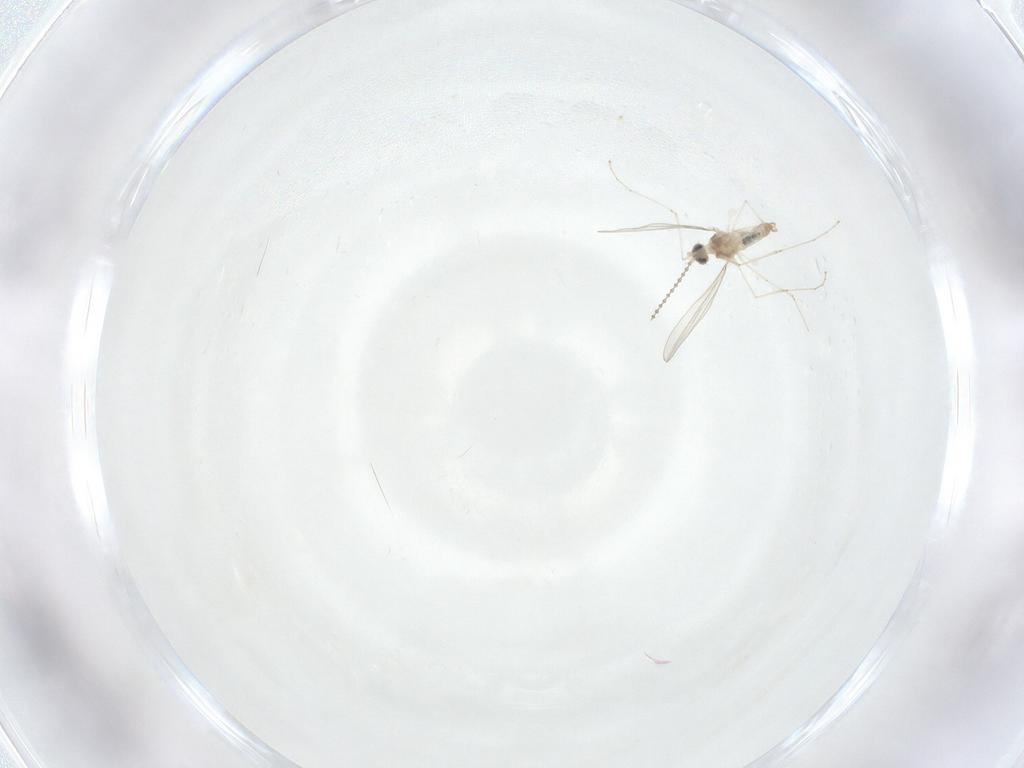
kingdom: Animalia
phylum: Arthropoda
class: Insecta
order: Diptera
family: Cecidomyiidae
